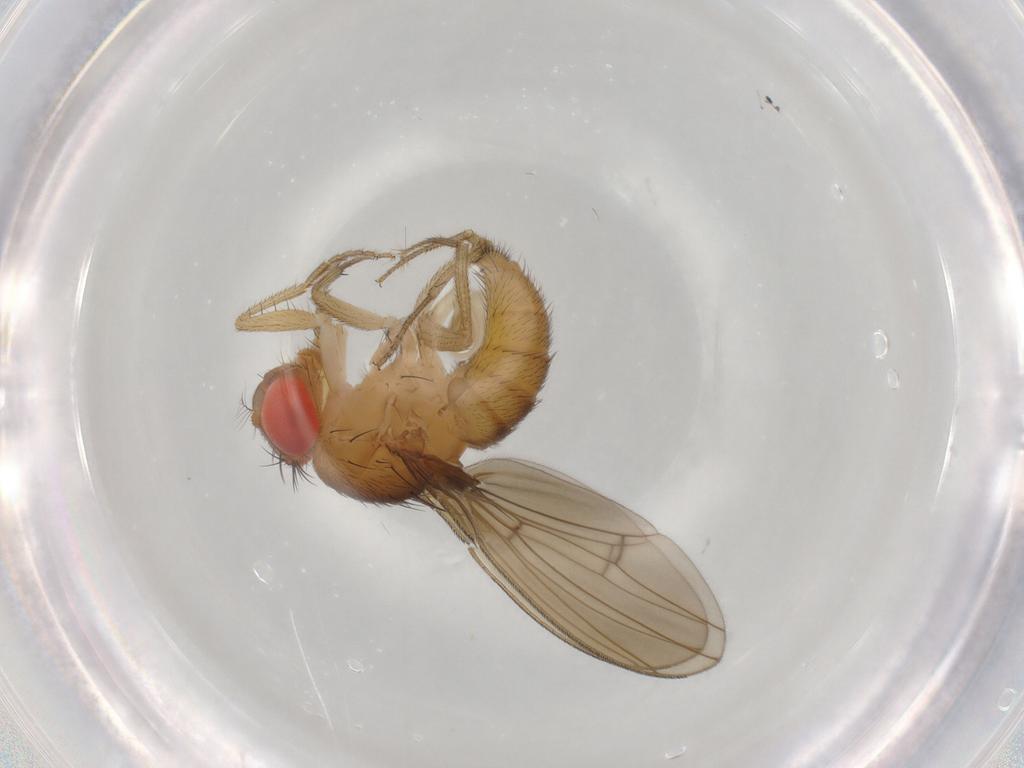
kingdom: Animalia
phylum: Arthropoda
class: Insecta
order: Diptera
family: Drosophilidae
